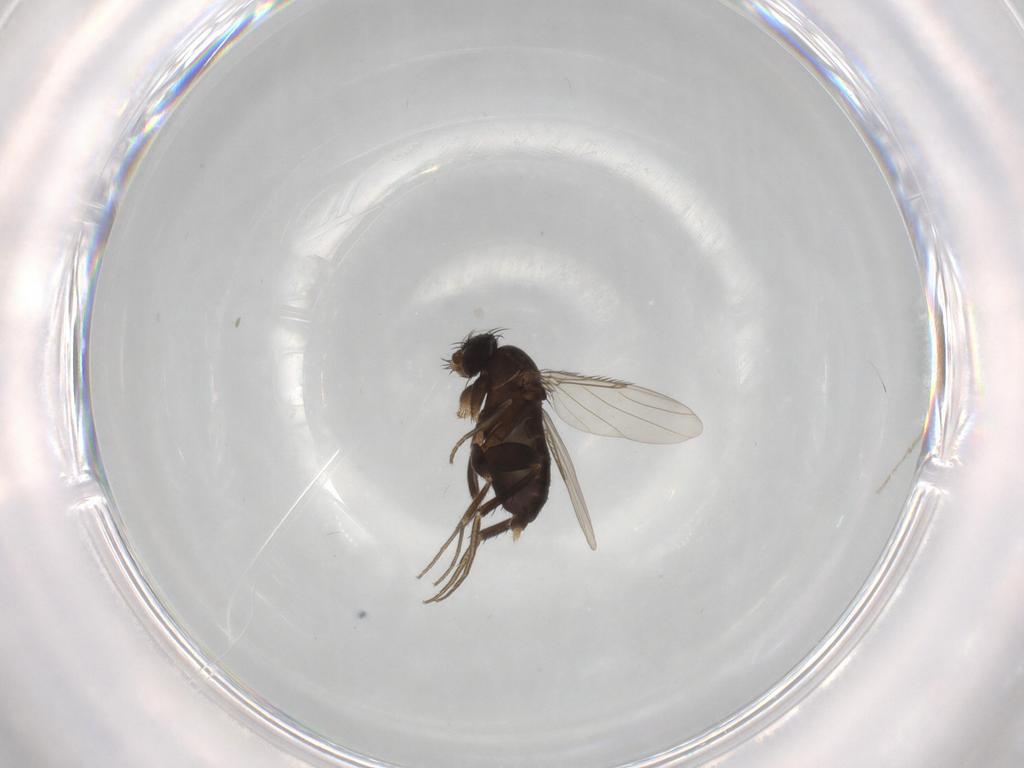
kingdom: Animalia
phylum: Arthropoda
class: Insecta
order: Diptera
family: Phoridae
